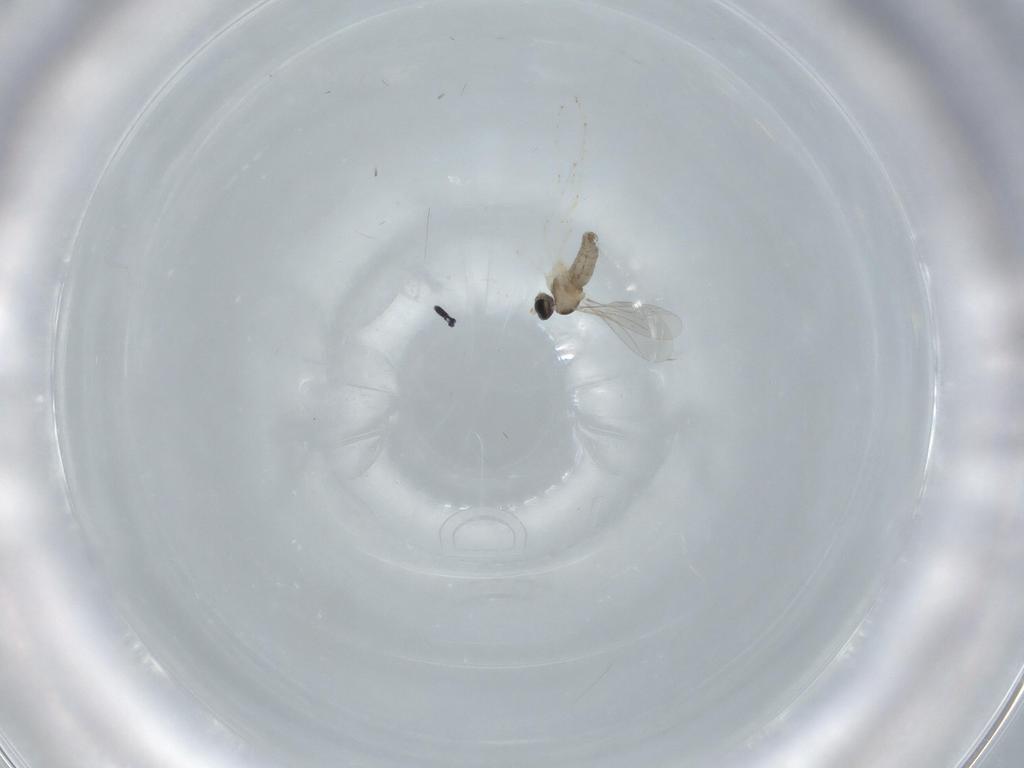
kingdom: Animalia
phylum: Arthropoda
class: Insecta
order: Diptera
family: Cecidomyiidae
